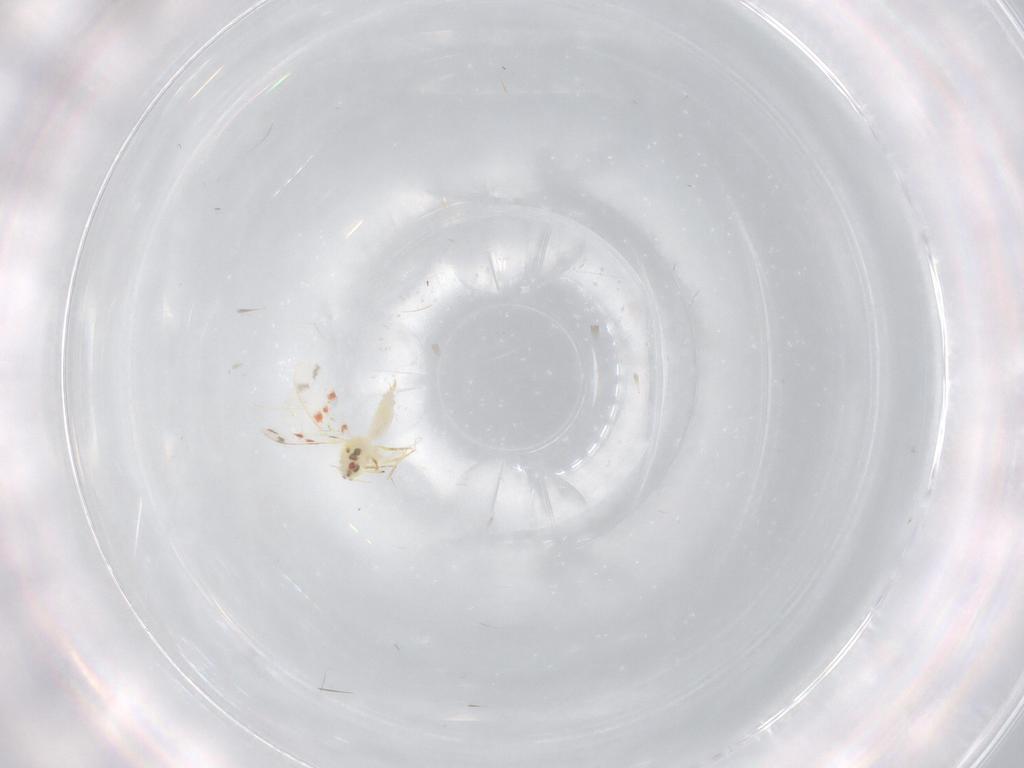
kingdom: Animalia
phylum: Arthropoda
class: Insecta
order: Hemiptera
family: Aleyrodidae
